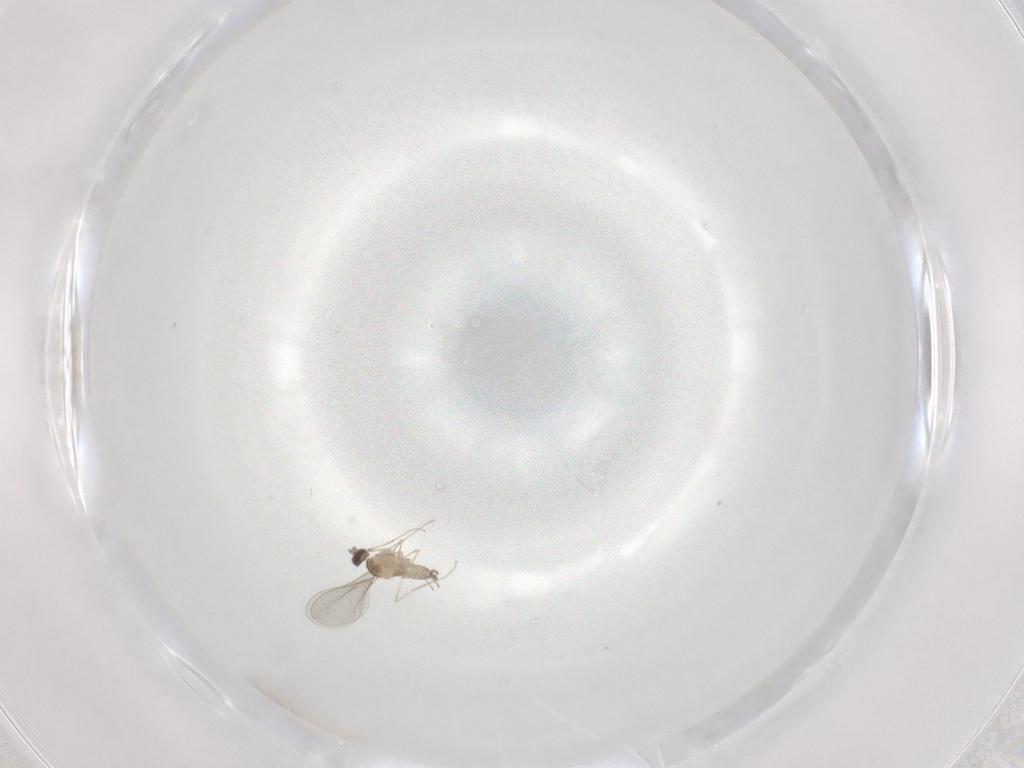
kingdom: Animalia
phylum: Arthropoda
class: Insecta
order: Diptera
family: Cecidomyiidae
